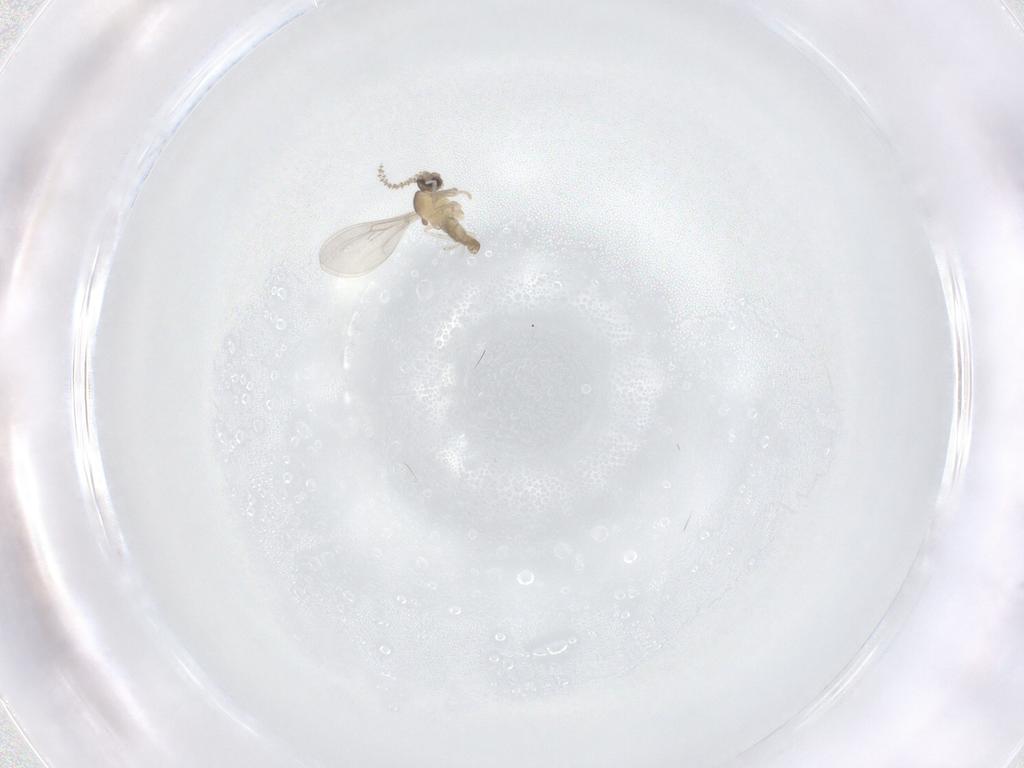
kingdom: Animalia
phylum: Arthropoda
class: Insecta
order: Diptera
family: Cecidomyiidae
